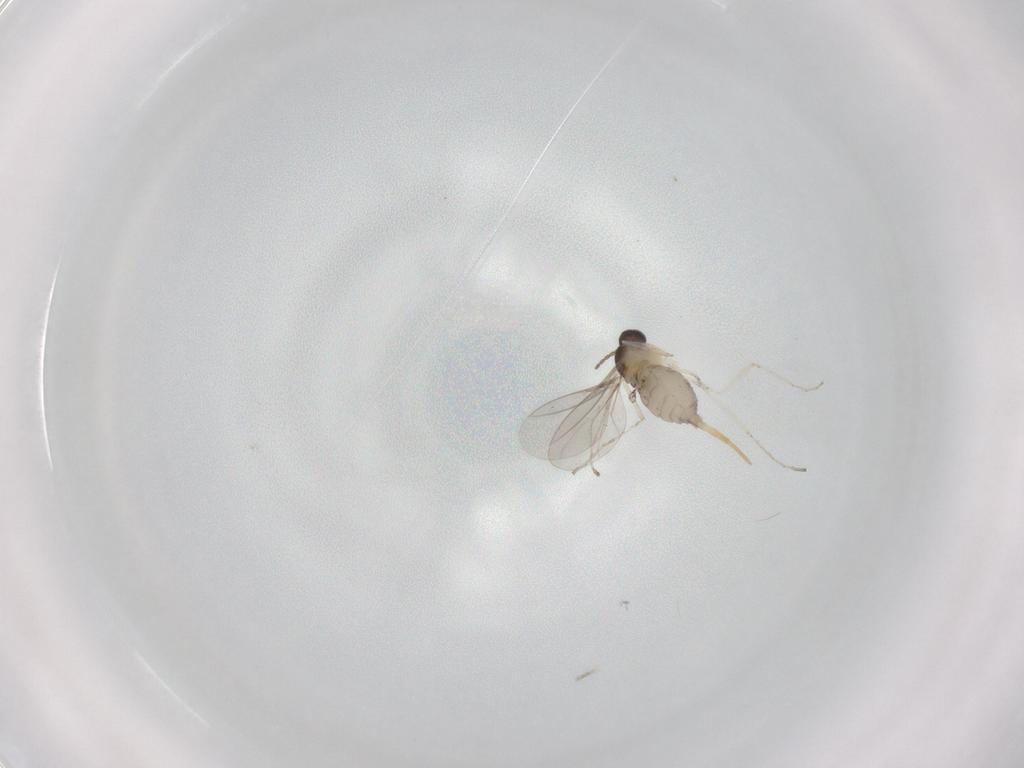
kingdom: Animalia
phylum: Arthropoda
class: Insecta
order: Diptera
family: Cecidomyiidae
